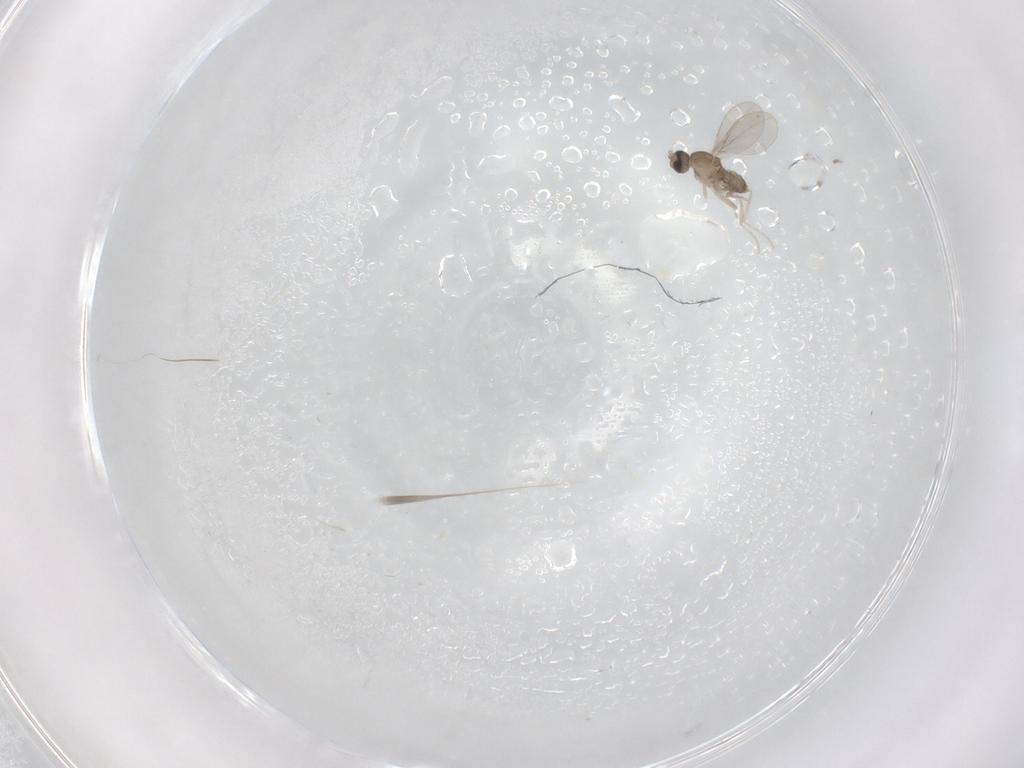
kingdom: Animalia
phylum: Arthropoda
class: Insecta
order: Diptera
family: Cecidomyiidae
